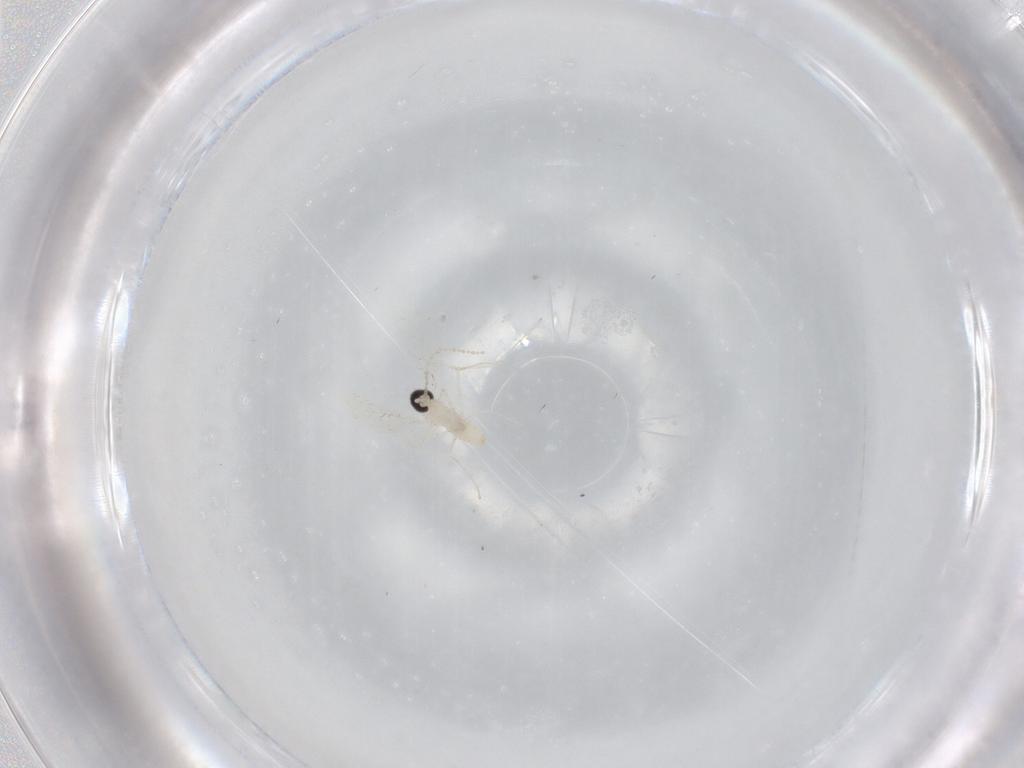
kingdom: Animalia
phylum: Arthropoda
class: Insecta
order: Diptera
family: Cecidomyiidae
